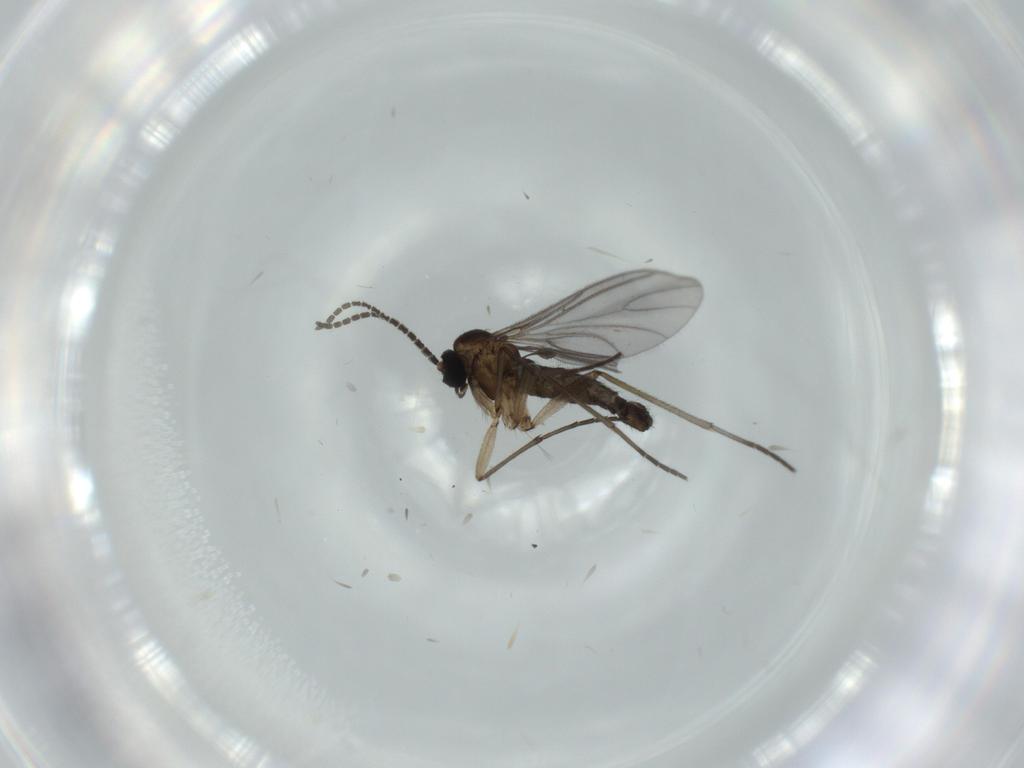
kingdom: Animalia
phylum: Arthropoda
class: Insecta
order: Diptera
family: Sciaridae
